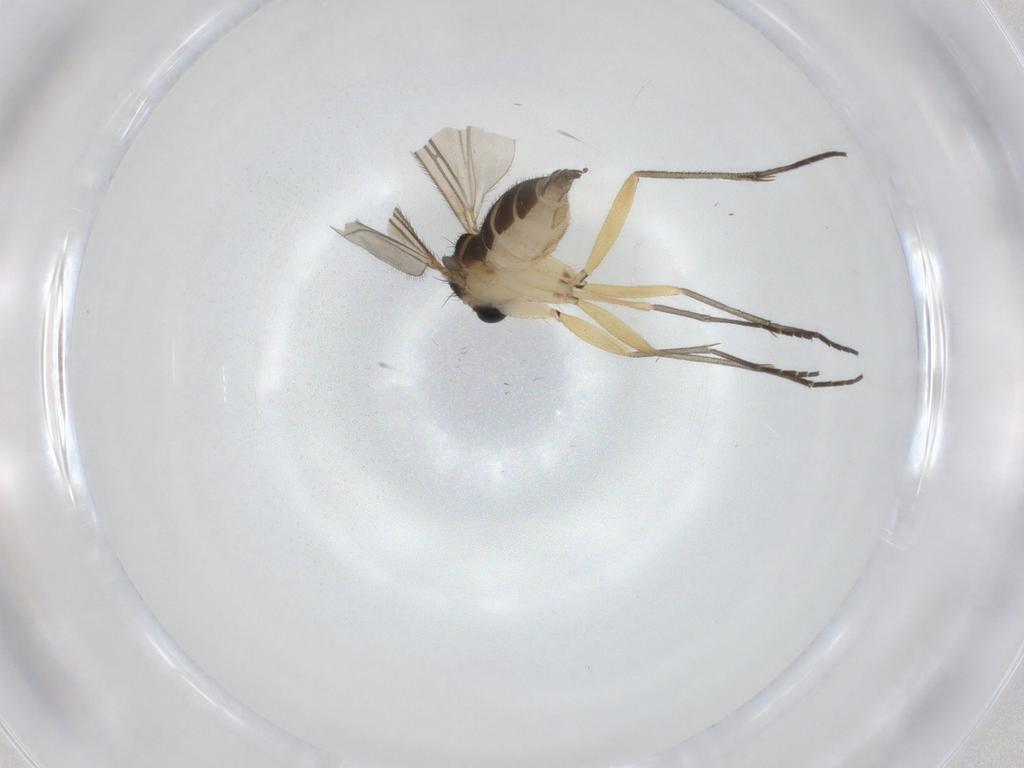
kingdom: Animalia
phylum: Arthropoda
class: Insecta
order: Diptera
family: Sciaridae
